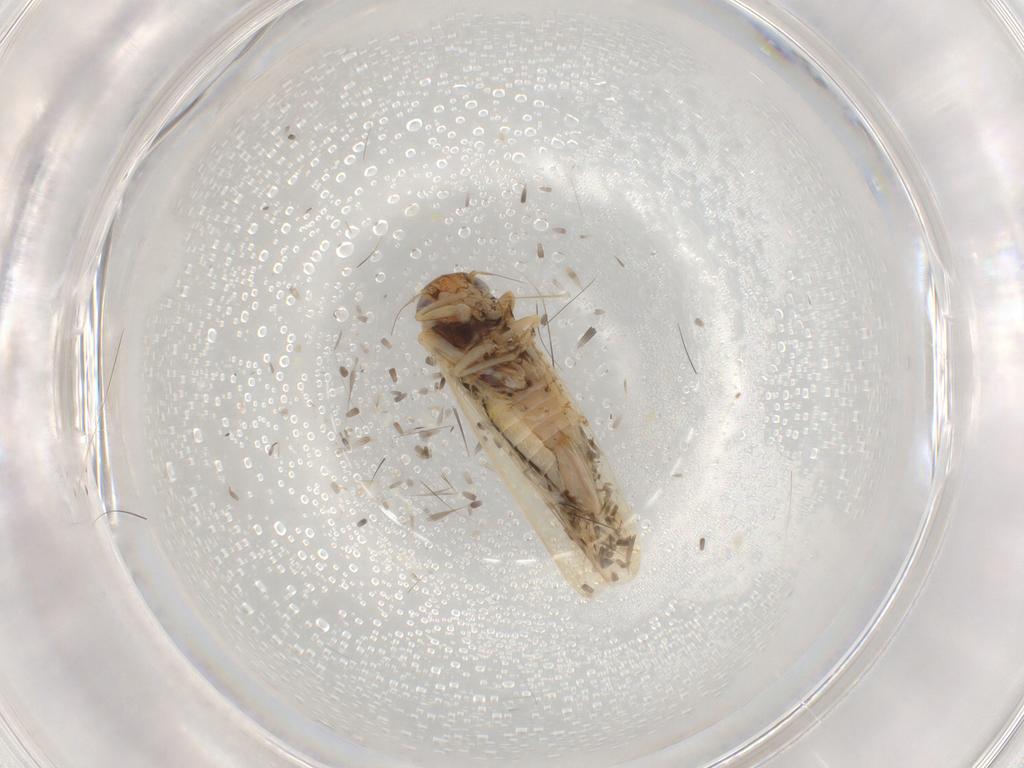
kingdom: Animalia
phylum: Arthropoda
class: Insecta
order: Hemiptera
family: Cicadellidae
